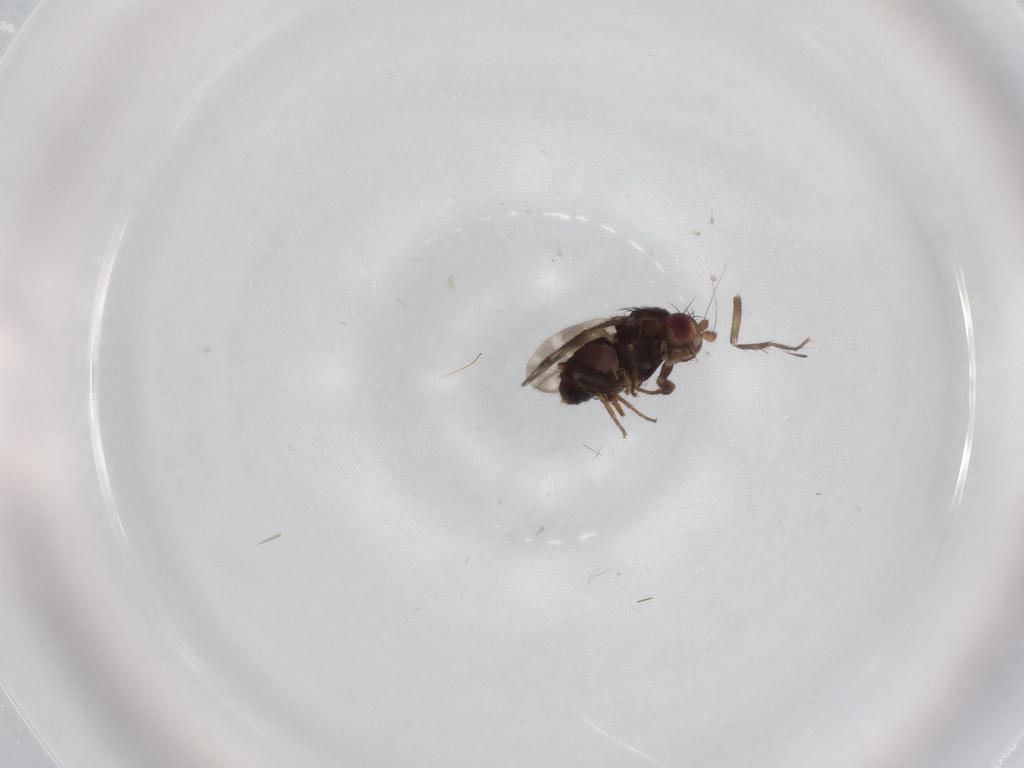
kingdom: Animalia
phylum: Arthropoda
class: Insecta
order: Diptera
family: Sphaeroceridae
